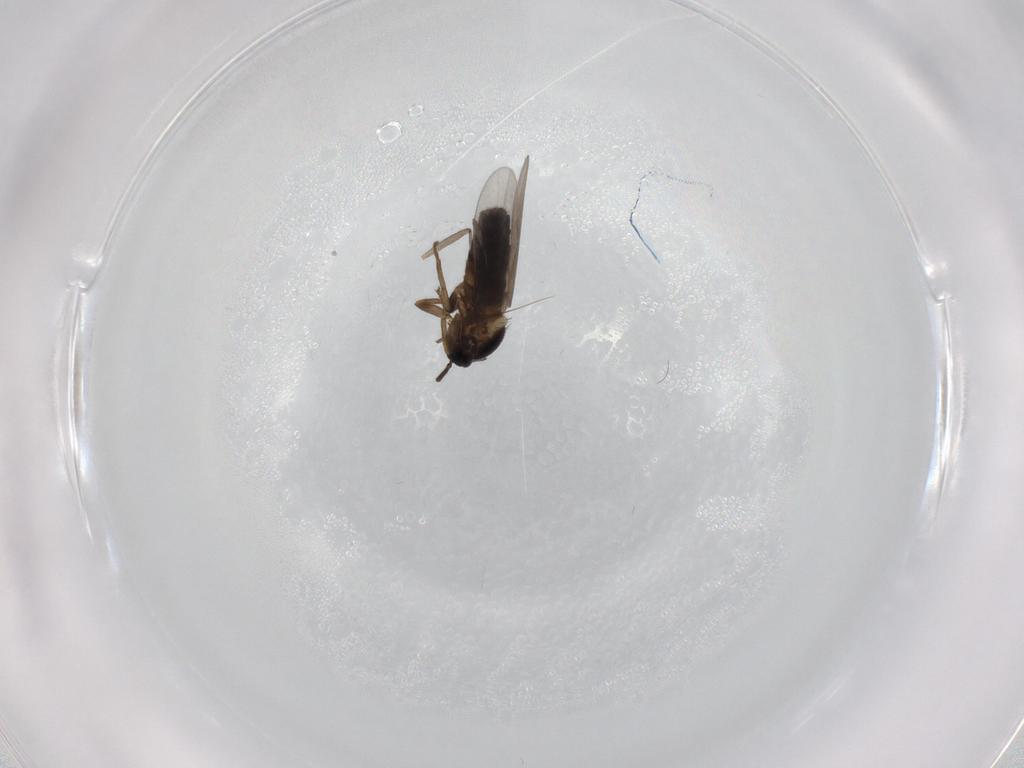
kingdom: Animalia
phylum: Arthropoda
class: Insecta
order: Diptera
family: Scatopsidae
